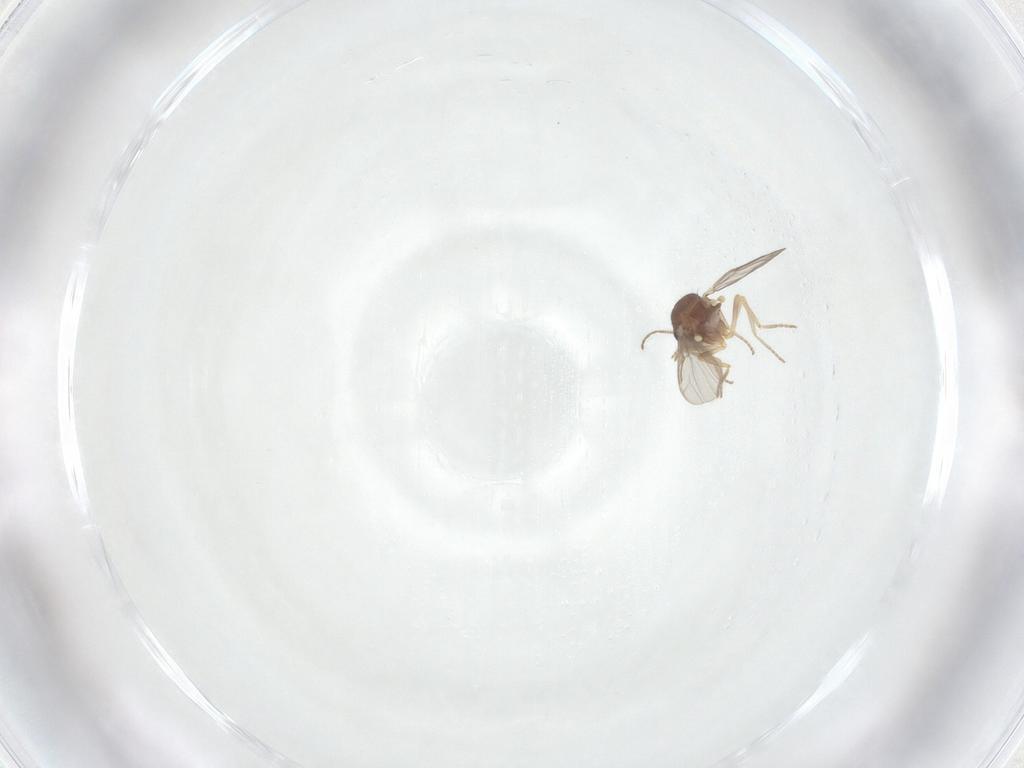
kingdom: Animalia
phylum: Arthropoda
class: Insecta
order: Diptera
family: Ceratopogonidae
